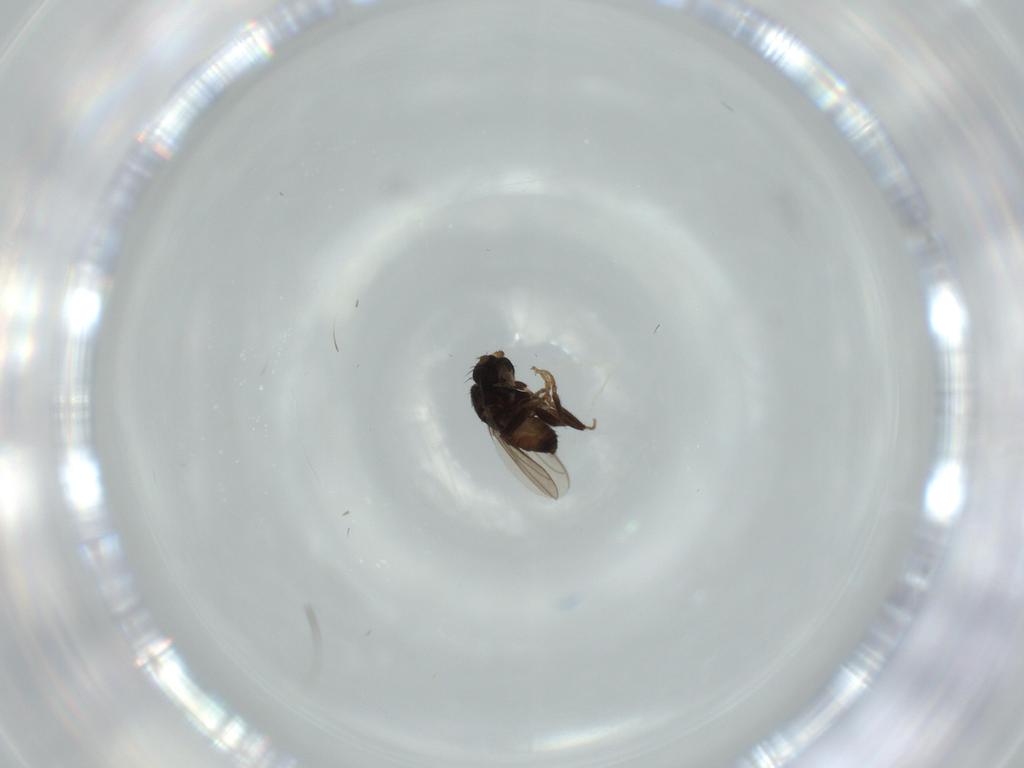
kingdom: Animalia
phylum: Arthropoda
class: Insecta
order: Diptera
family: Sphaeroceridae
